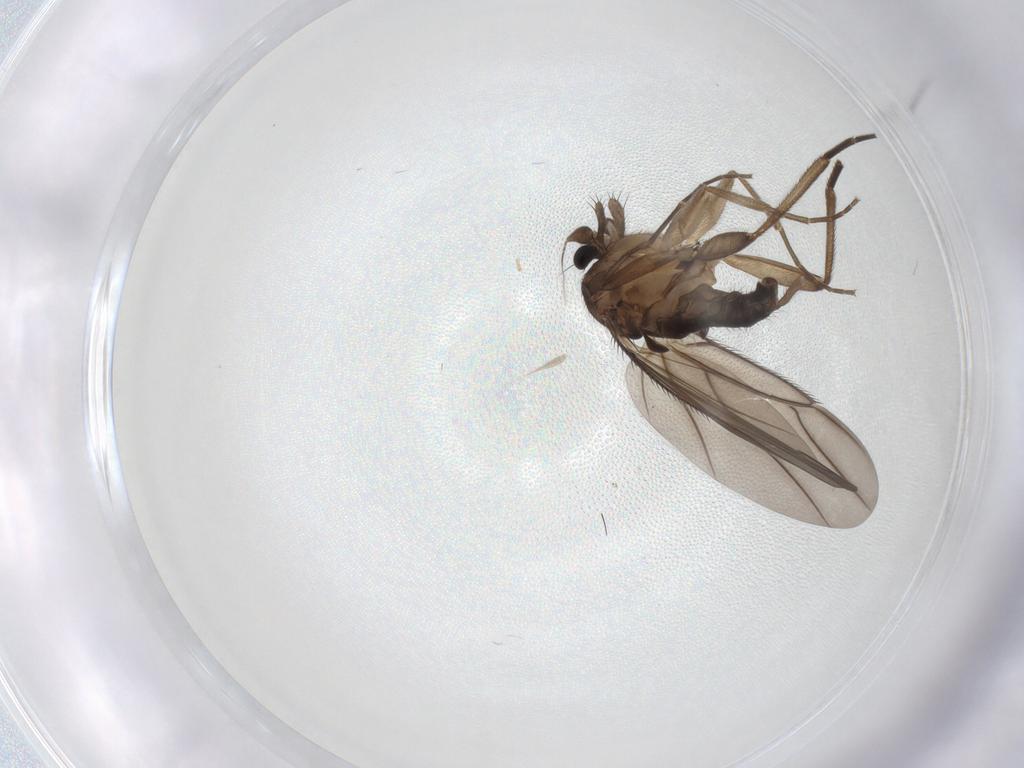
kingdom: Animalia
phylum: Arthropoda
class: Insecta
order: Diptera
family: Phoridae
